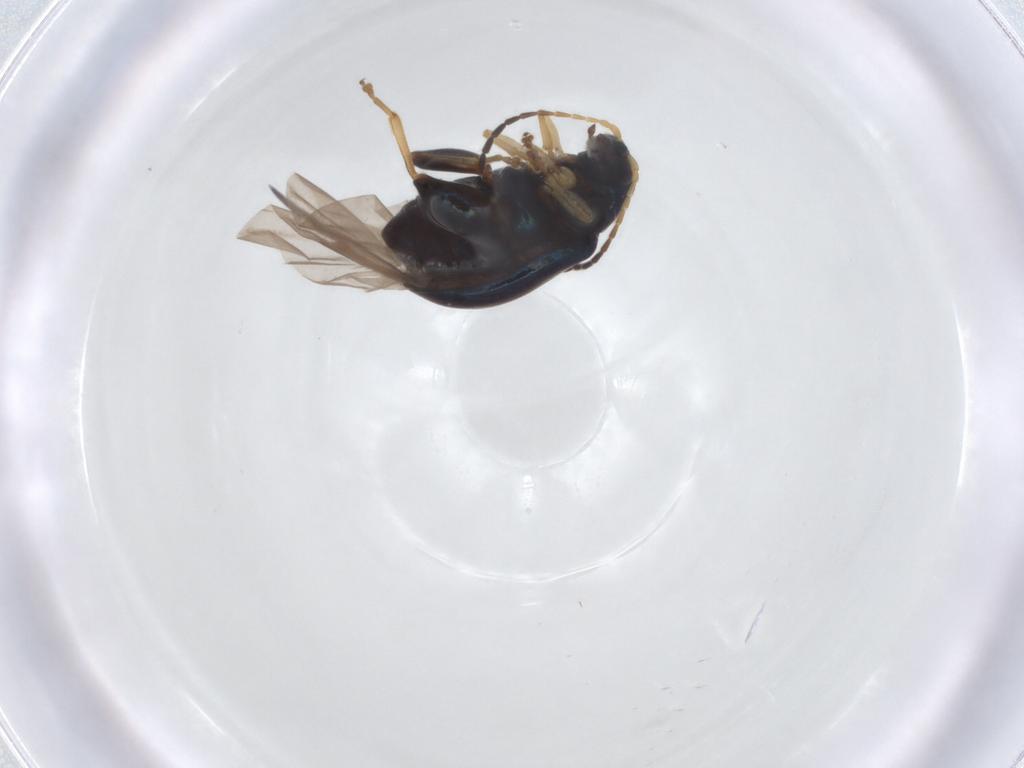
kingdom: Animalia
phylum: Arthropoda
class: Insecta
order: Coleoptera
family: Chrysomelidae
